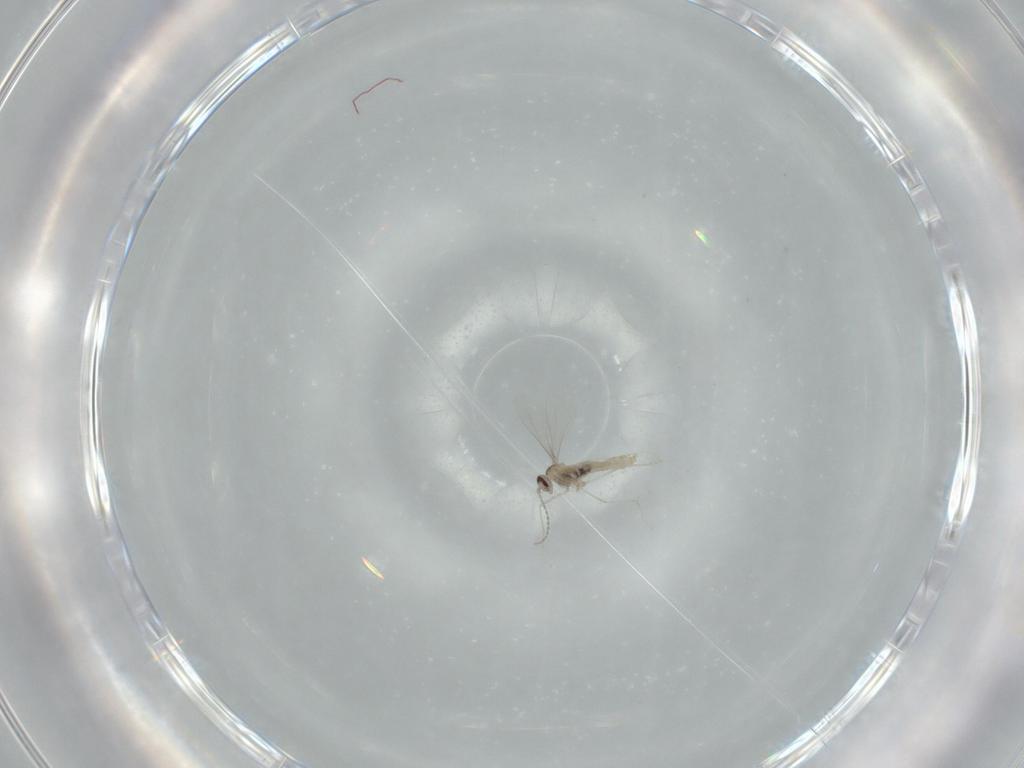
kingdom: Animalia
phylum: Arthropoda
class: Insecta
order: Diptera
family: Cecidomyiidae
